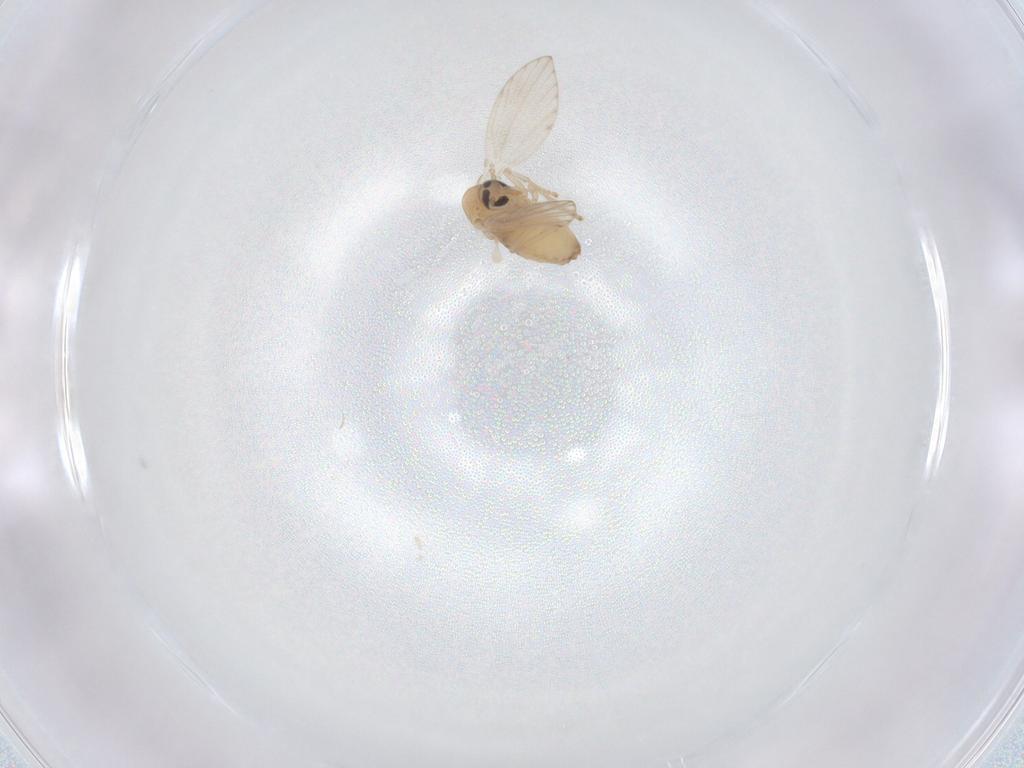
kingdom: Animalia
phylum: Arthropoda
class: Insecta
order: Diptera
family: Psychodidae
